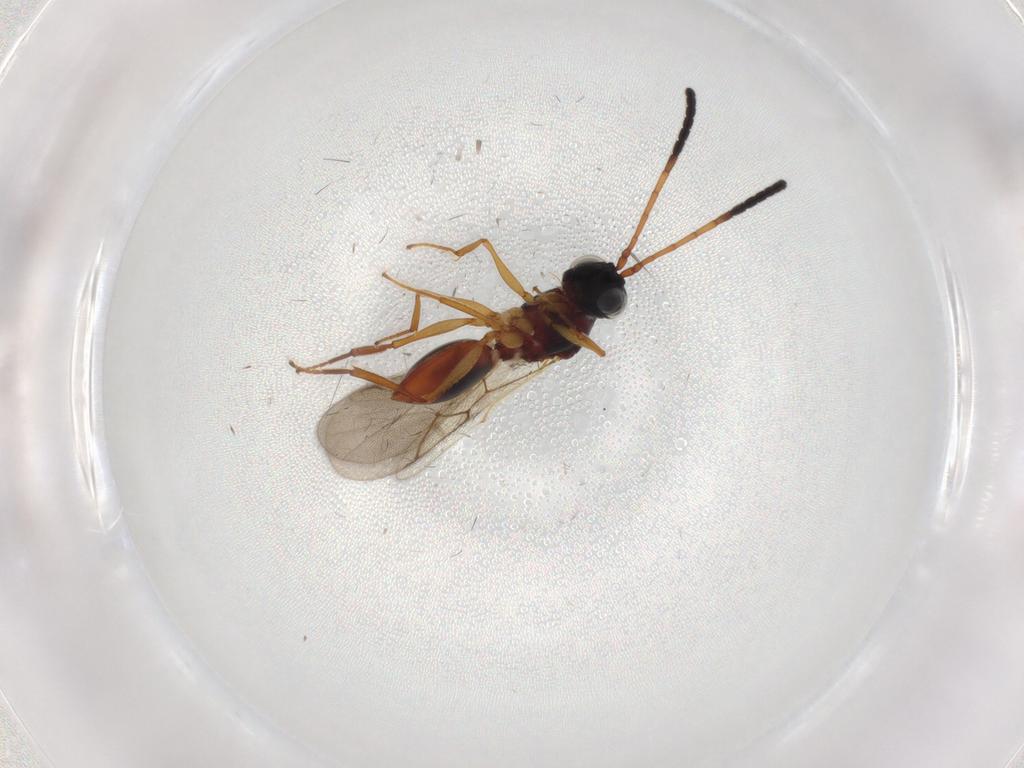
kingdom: Animalia
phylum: Arthropoda
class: Insecta
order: Hymenoptera
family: Figitidae
